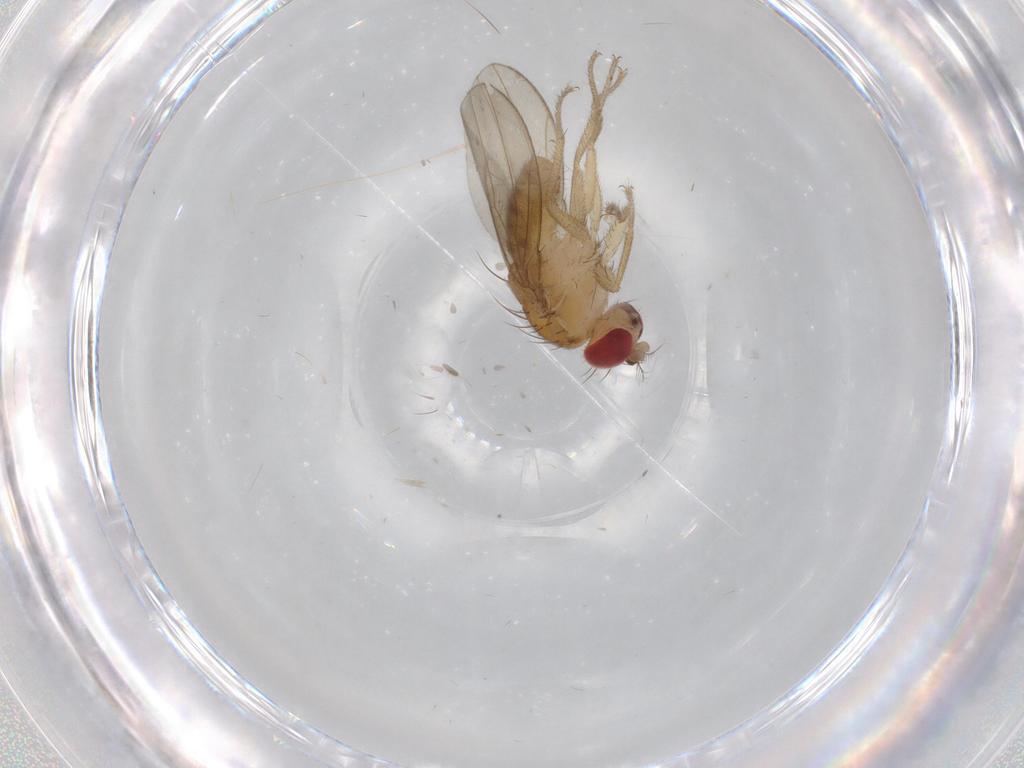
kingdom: Animalia
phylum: Arthropoda
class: Insecta
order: Diptera
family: Drosophilidae
